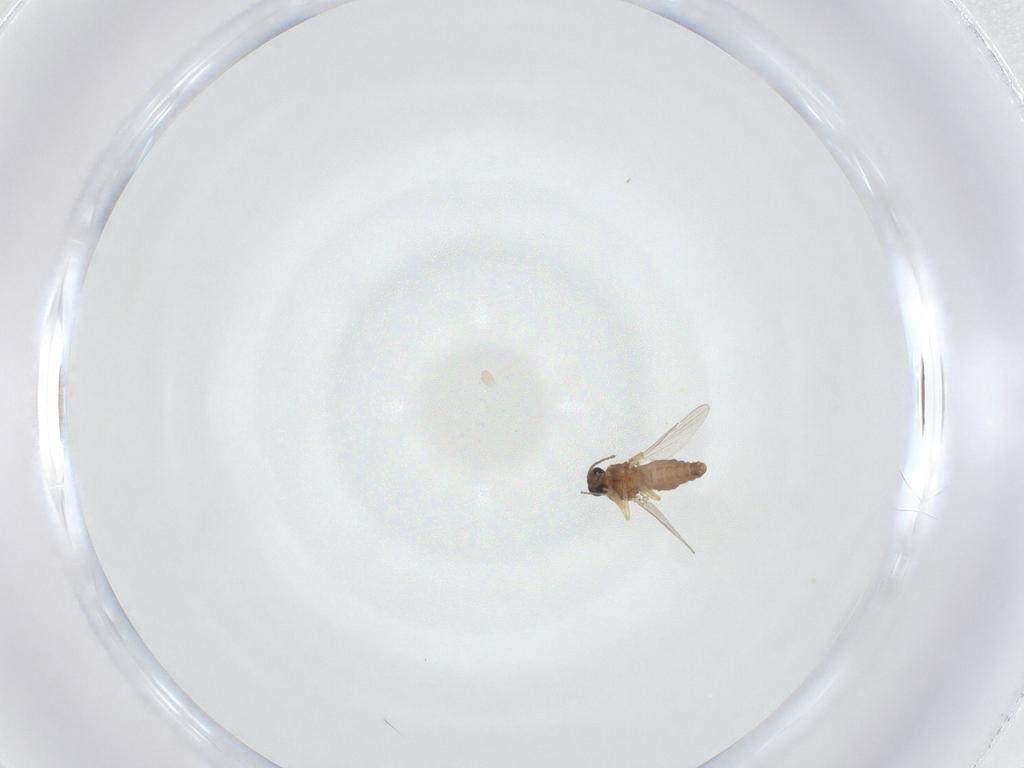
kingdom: Animalia
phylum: Arthropoda
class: Insecta
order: Diptera
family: Ceratopogonidae
